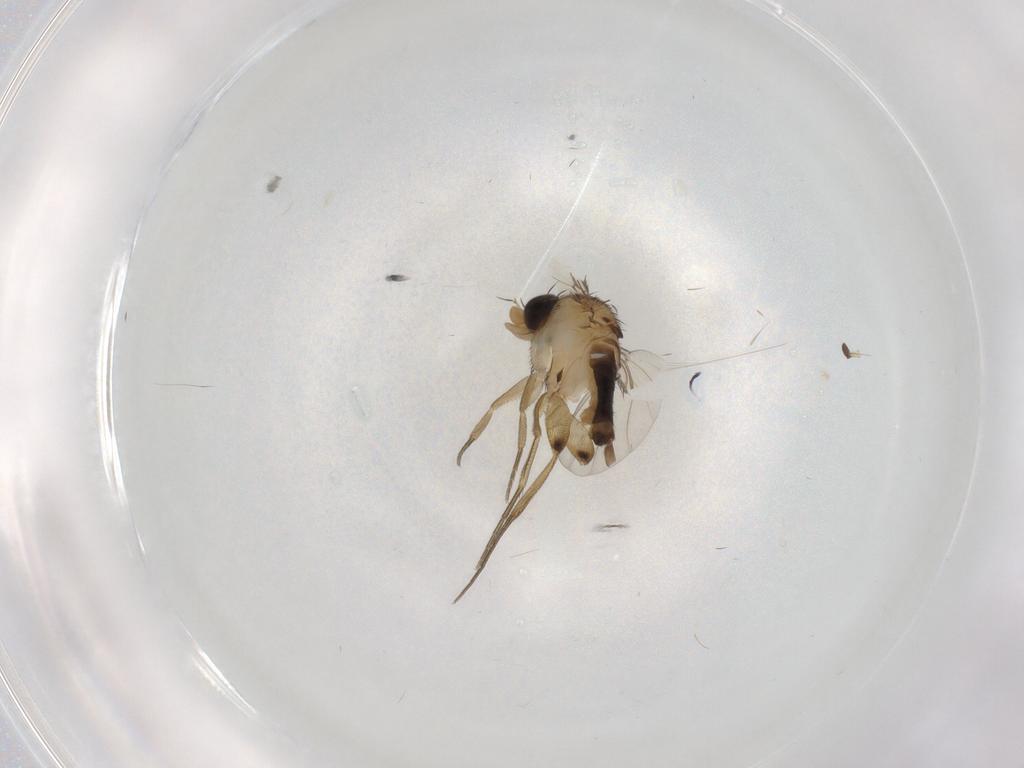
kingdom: Animalia
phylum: Arthropoda
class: Insecta
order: Diptera
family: Phoridae
